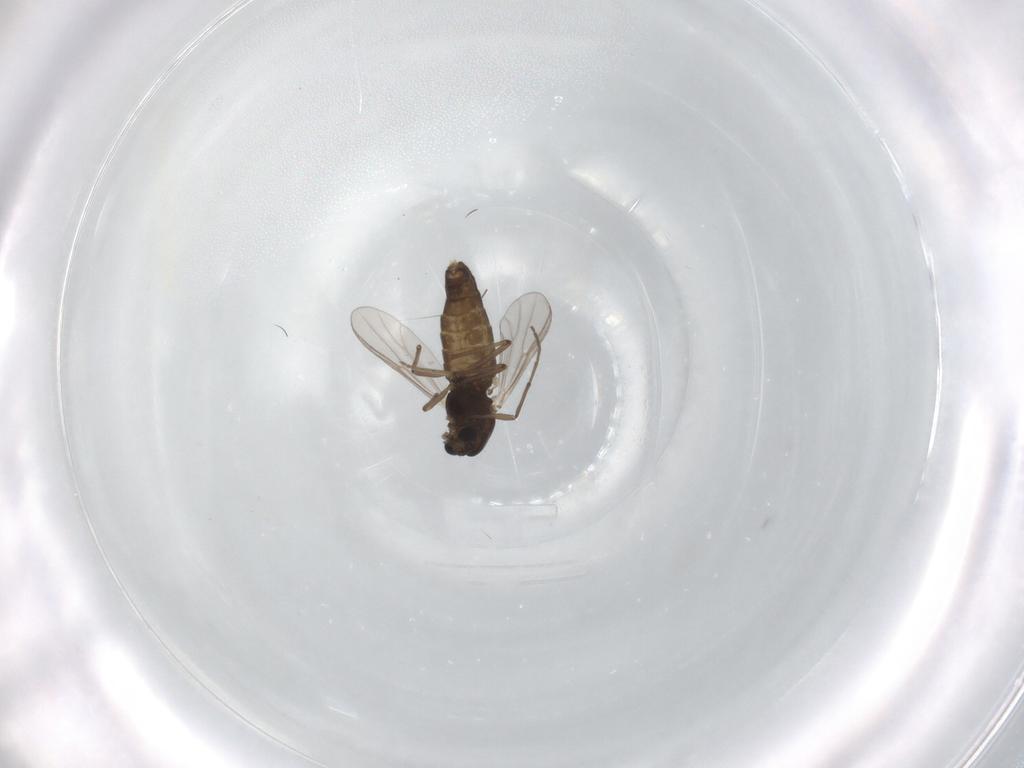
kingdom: Animalia
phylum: Arthropoda
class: Insecta
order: Diptera
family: Chironomidae
